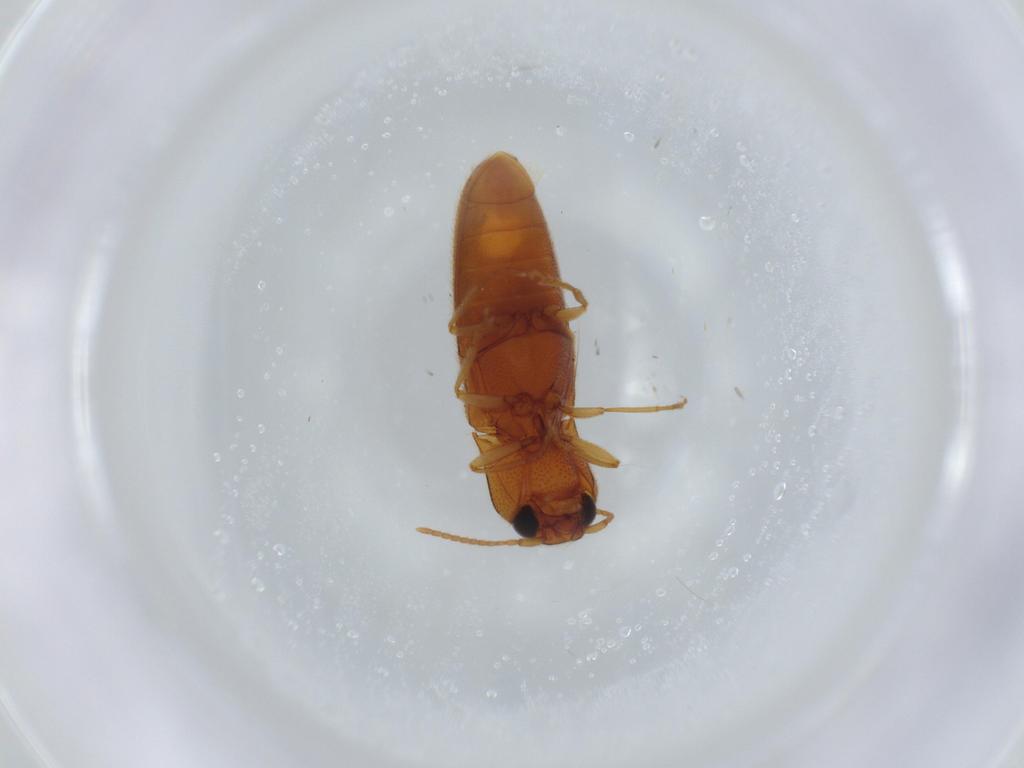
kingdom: Animalia
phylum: Arthropoda
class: Insecta
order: Coleoptera
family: Elateridae
